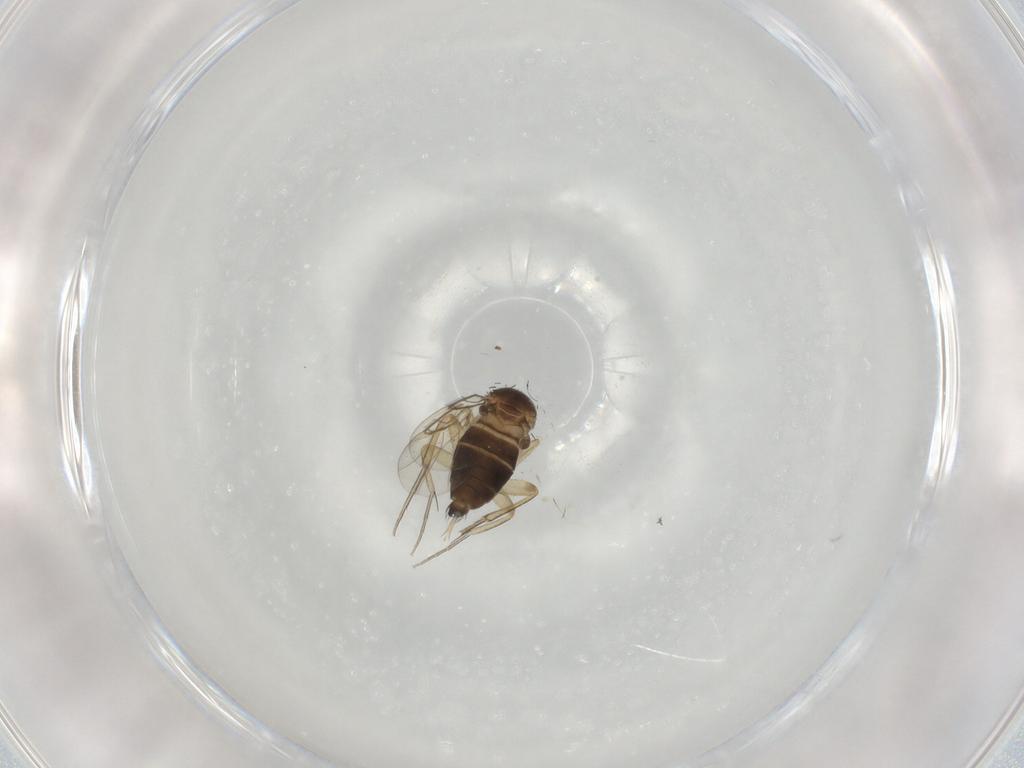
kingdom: Animalia
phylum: Arthropoda
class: Insecta
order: Diptera
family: Phoridae
